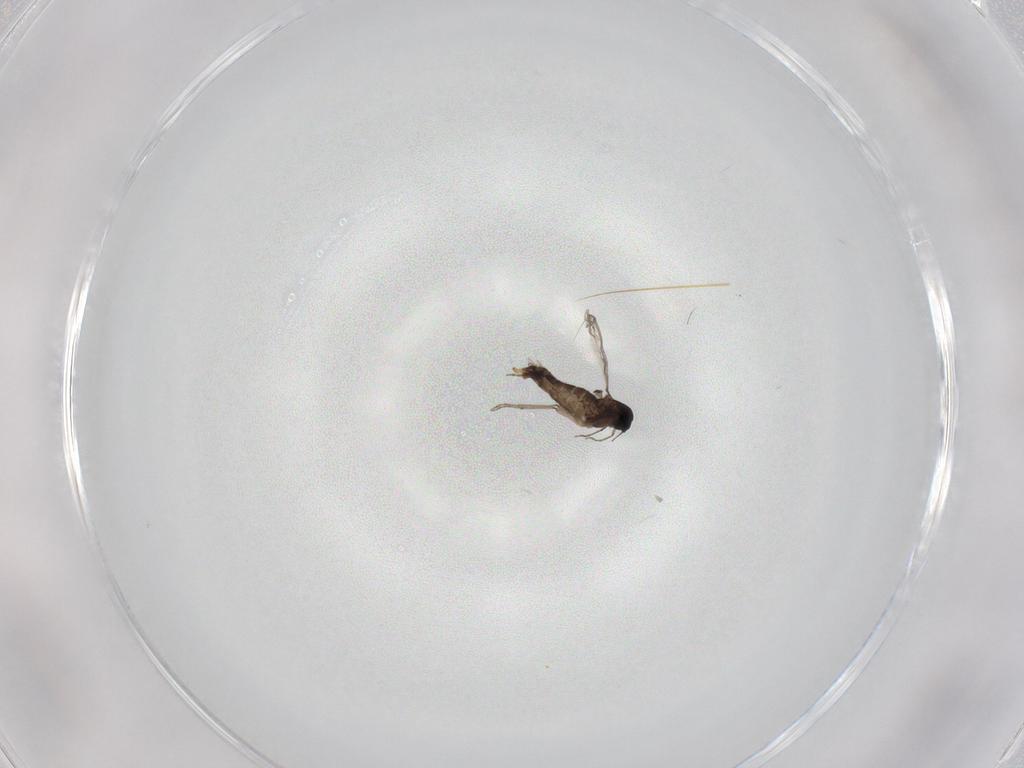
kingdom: Animalia
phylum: Arthropoda
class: Insecta
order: Diptera
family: Chironomidae
